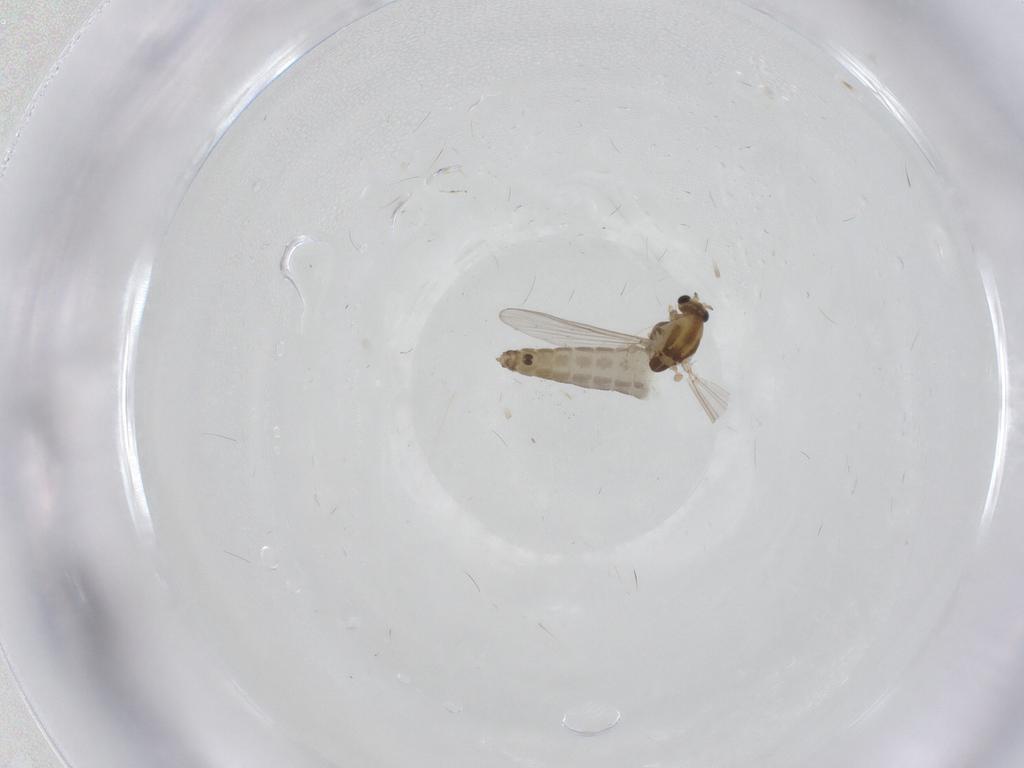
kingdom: Animalia
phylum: Arthropoda
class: Insecta
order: Diptera
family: Chironomidae
